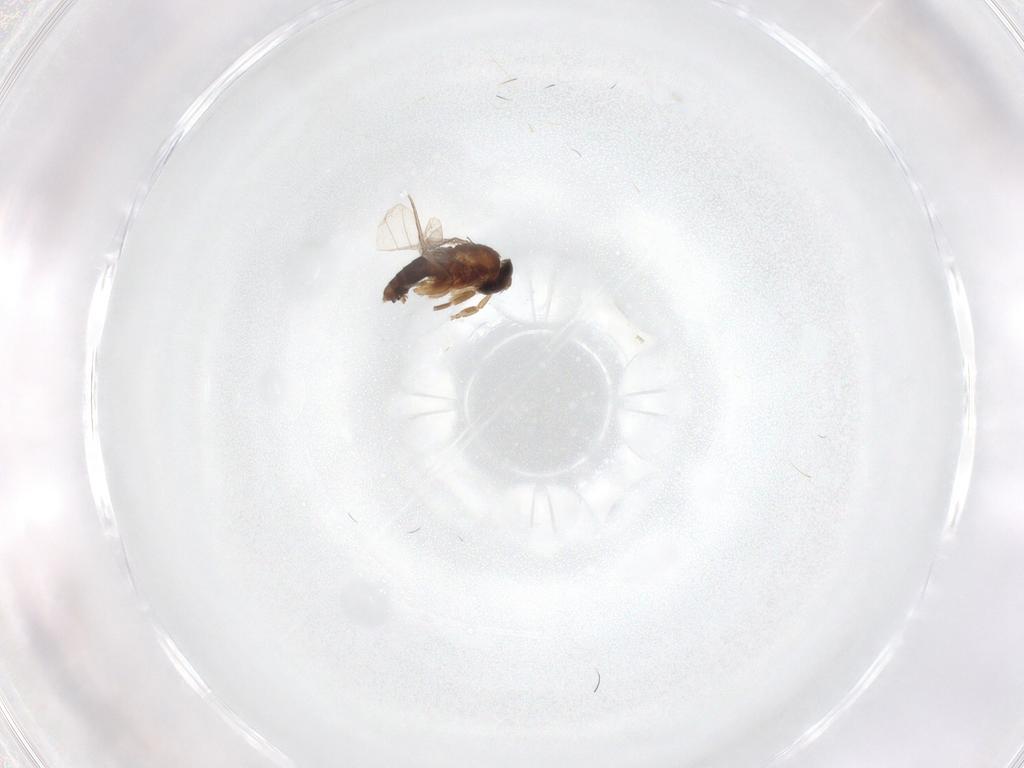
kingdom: Animalia
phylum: Arthropoda
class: Insecta
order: Diptera
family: Phoridae
